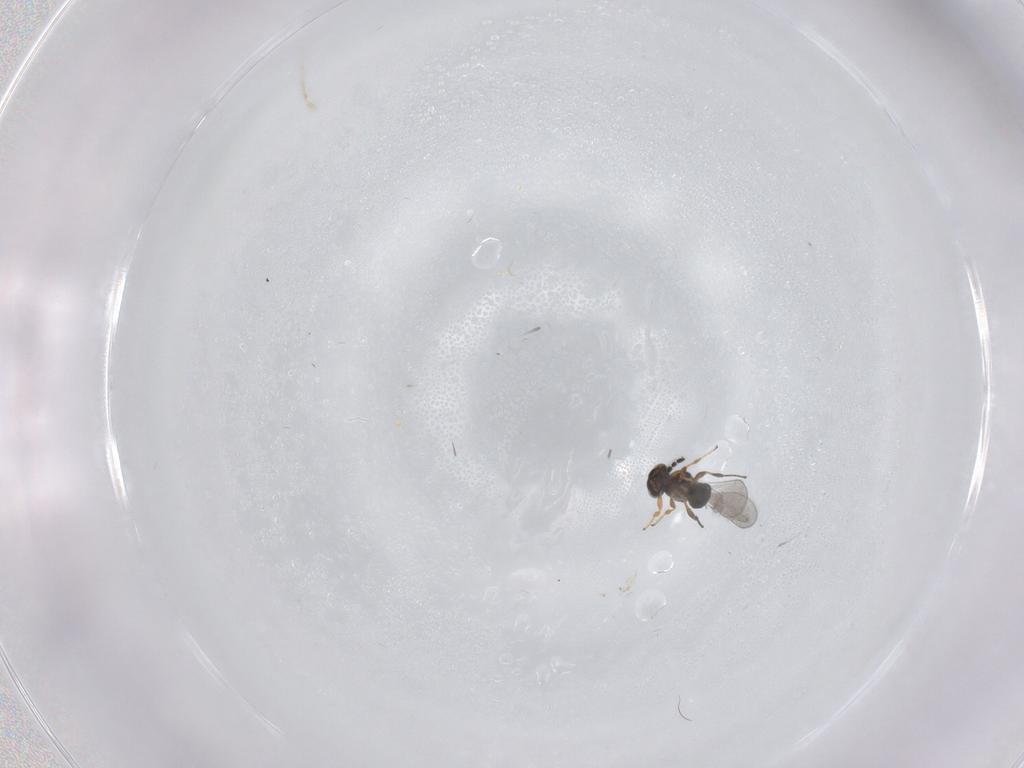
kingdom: Animalia
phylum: Arthropoda
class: Insecta
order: Hymenoptera
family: Platygastridae
